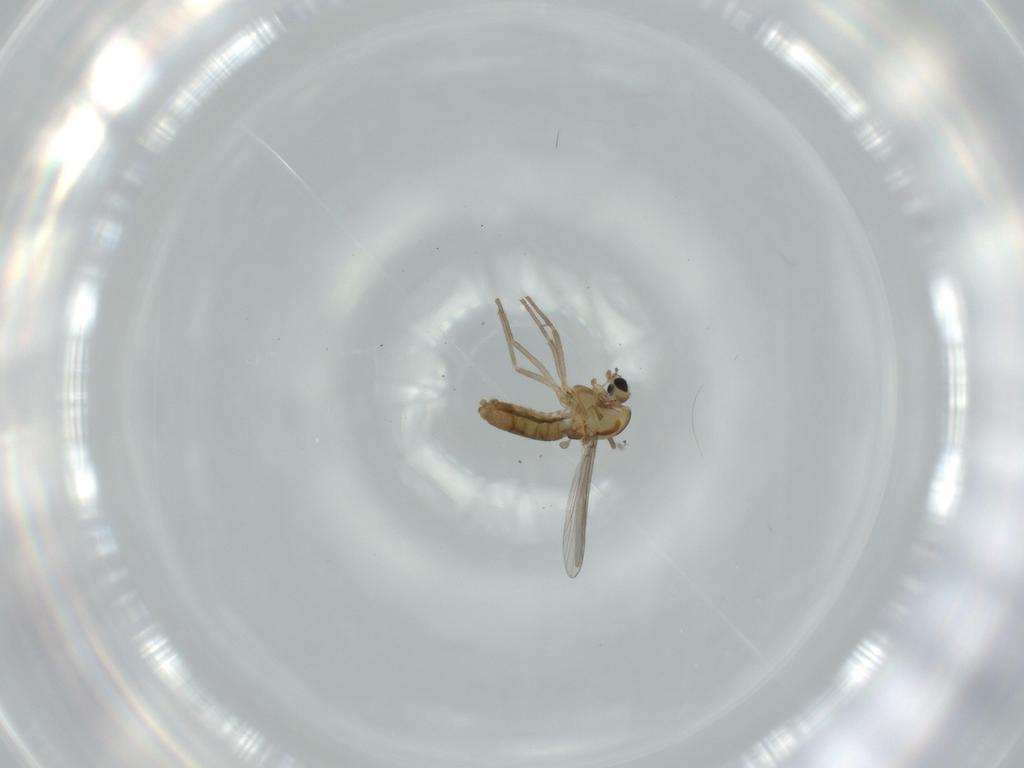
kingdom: Animalia
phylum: Arthropoda
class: Insecta
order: Diptera
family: Chironomidae
